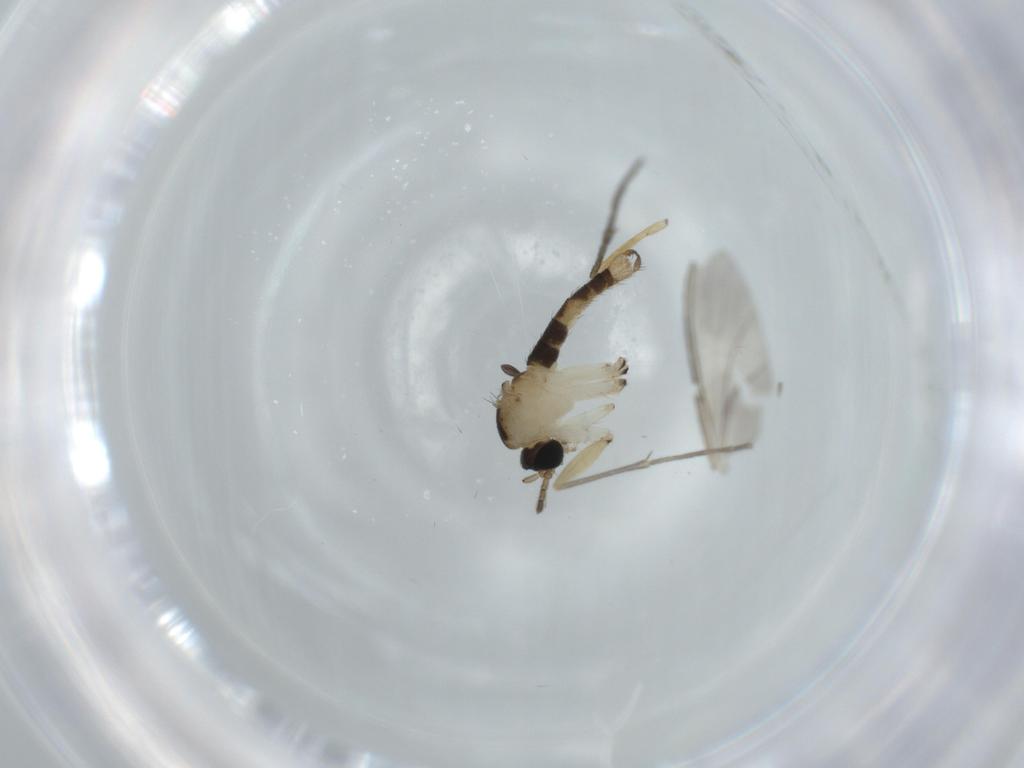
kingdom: Animalia
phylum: Arthropoda
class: Insecta
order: Diptera
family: Sciaridae
